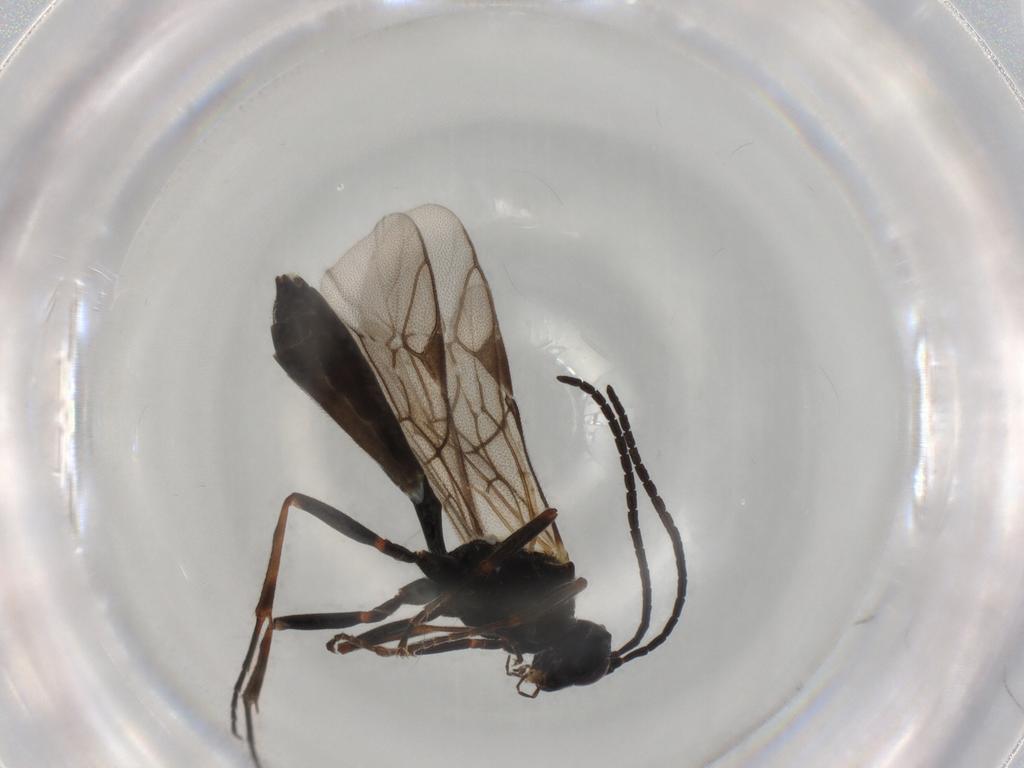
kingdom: Animalia
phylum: Arthropoda
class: Insecta
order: Hymenoptera
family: Ichneumonidae
